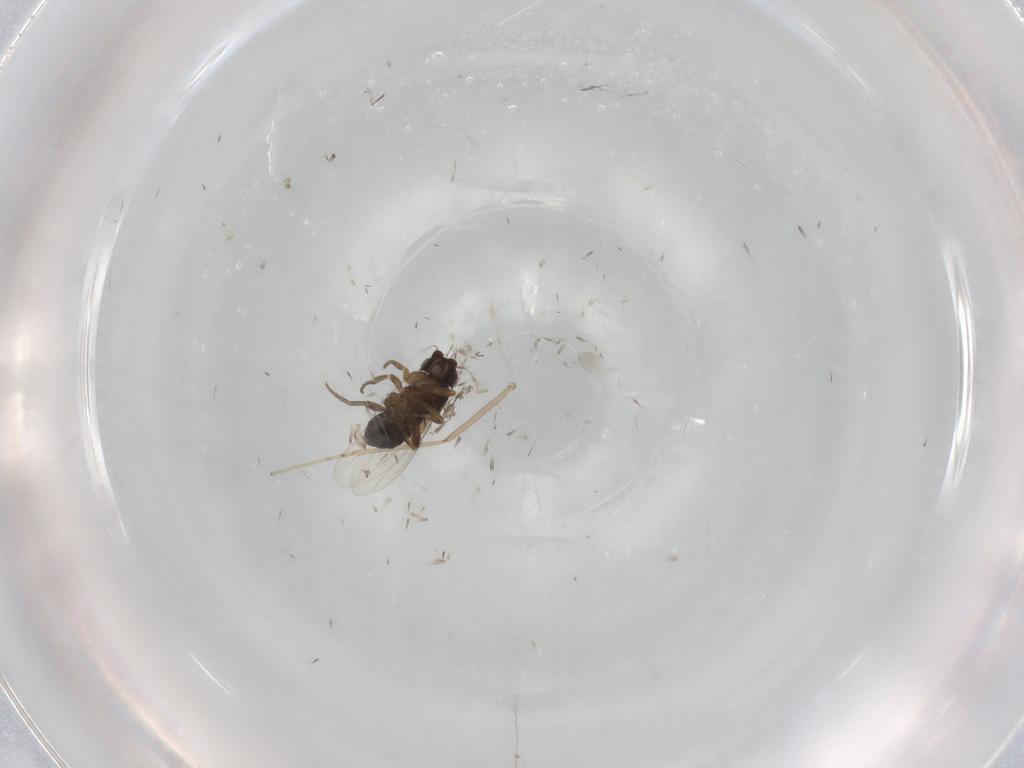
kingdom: Animalia
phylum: Arthropoda
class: Insecta
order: Diptera
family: Phoridae
